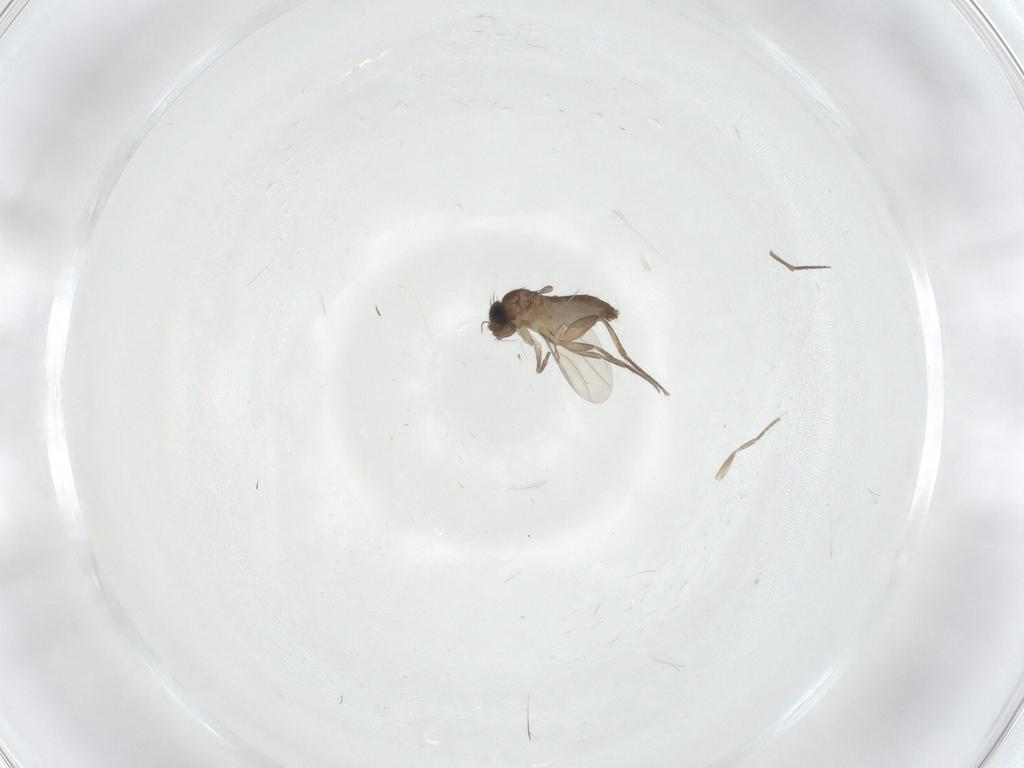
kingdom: Animalia
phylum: Arthropoda
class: Insecta
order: Diptera
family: Phoridae
